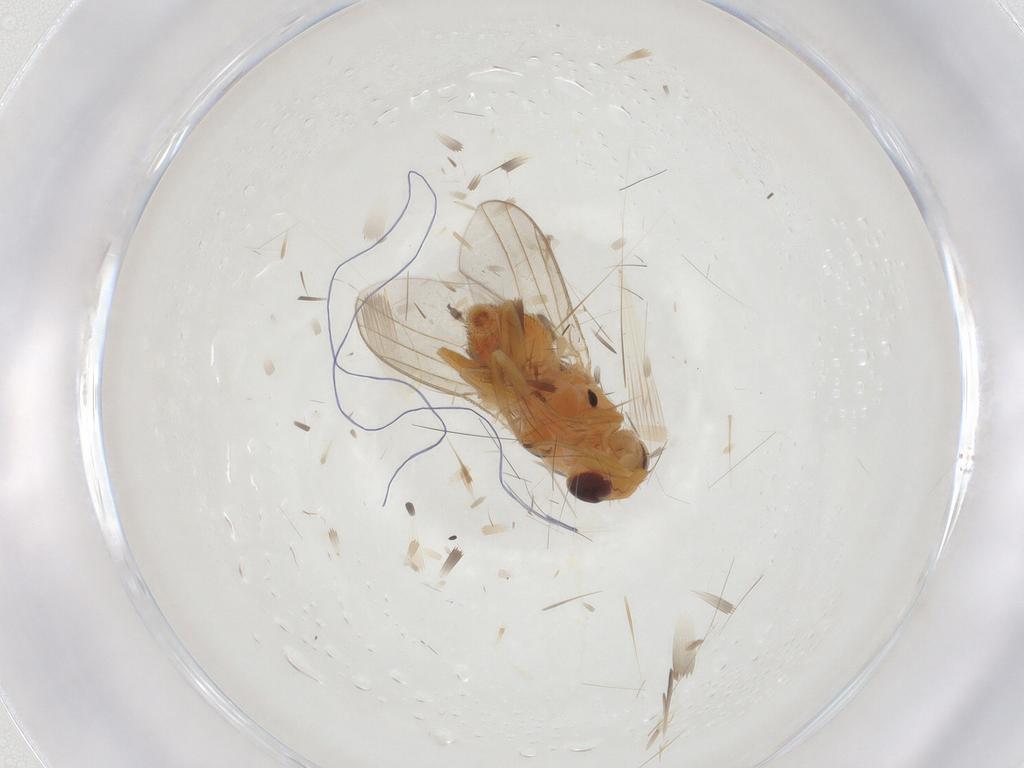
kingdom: Animalia
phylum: Arthropoda
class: Insecta
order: Diptera
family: Chloropidae
